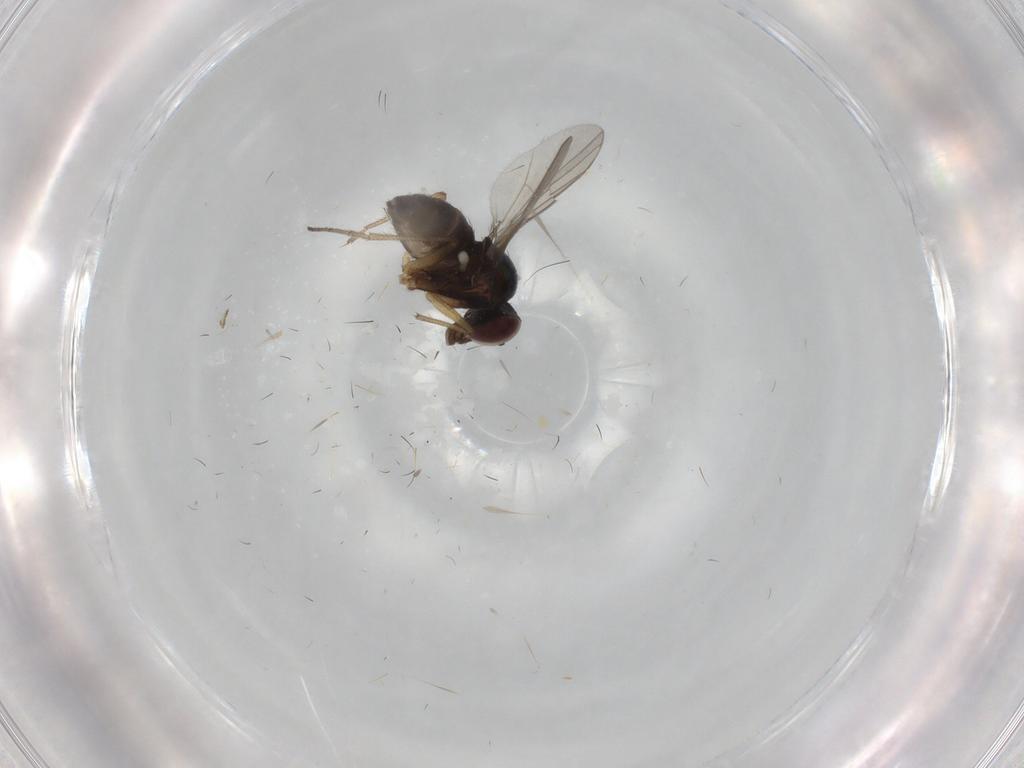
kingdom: Animalia
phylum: Arthropoda
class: Insecta
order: Diptera
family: Dolichopodidae
